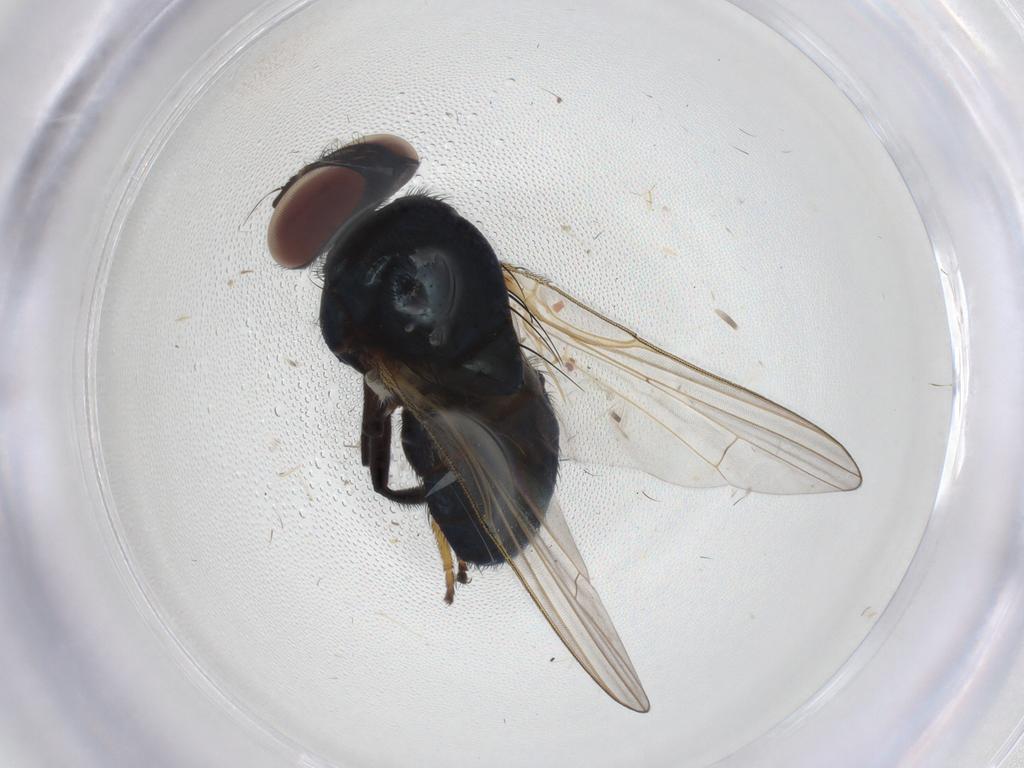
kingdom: Animalia
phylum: Arthropoda
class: Insecta
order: Diptera
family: Lonchaeidae
